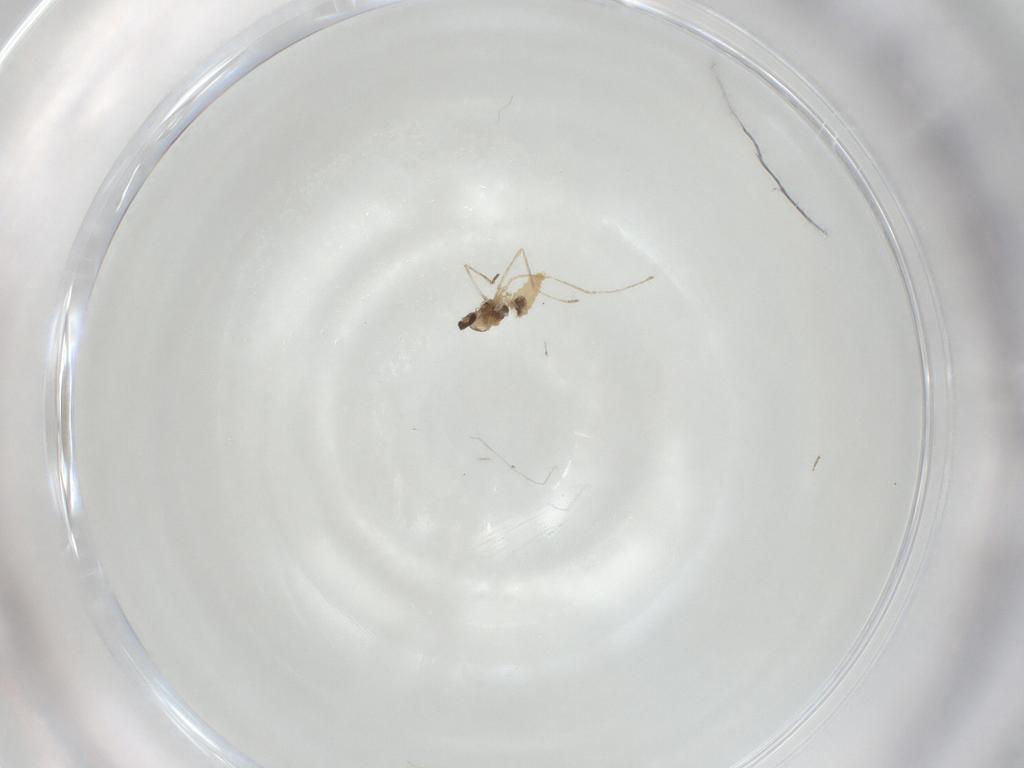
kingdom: Animalia
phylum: Arthropoda
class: Insecta
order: Diptera
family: Cecidomyiidae
